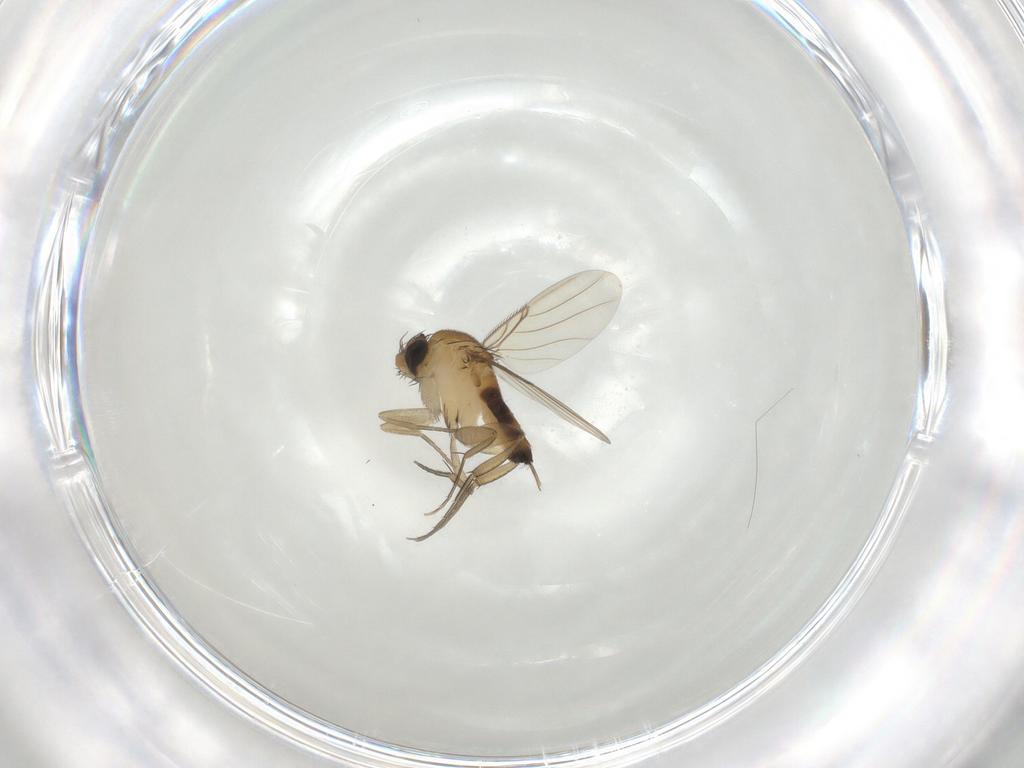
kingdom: Animalia
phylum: Arthropoda
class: Insecta
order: Diptera
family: Phoridae
